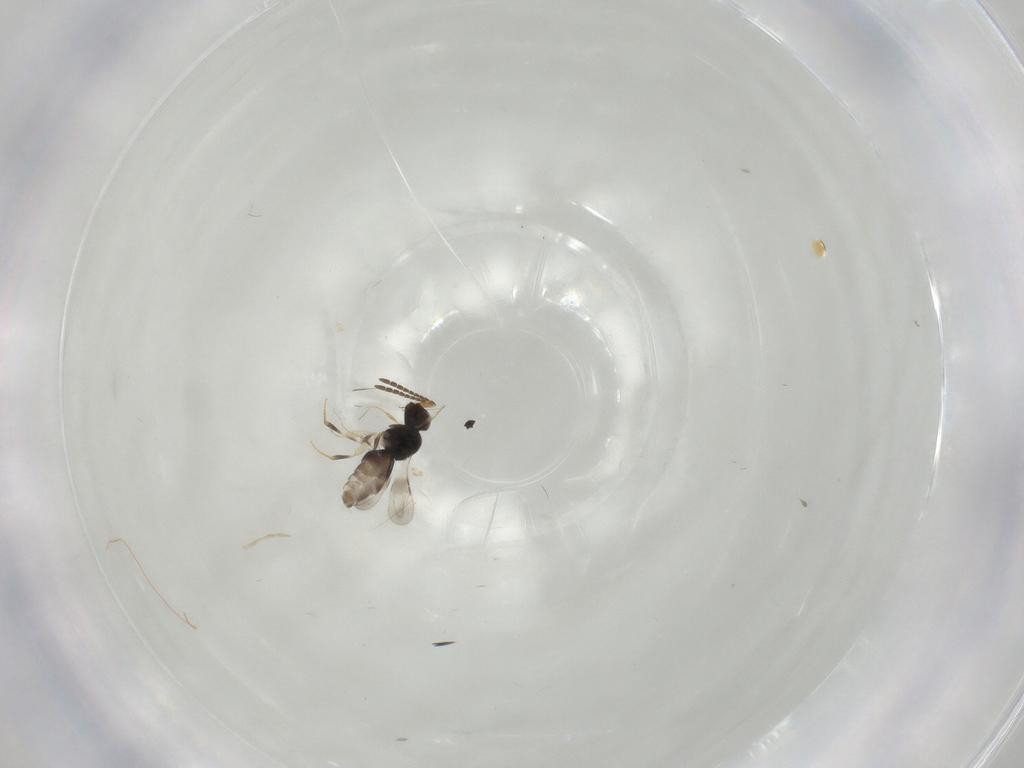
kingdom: Animalia
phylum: Arthropoda
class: Insecta
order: Hymenoptera
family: Ceraphronidae
